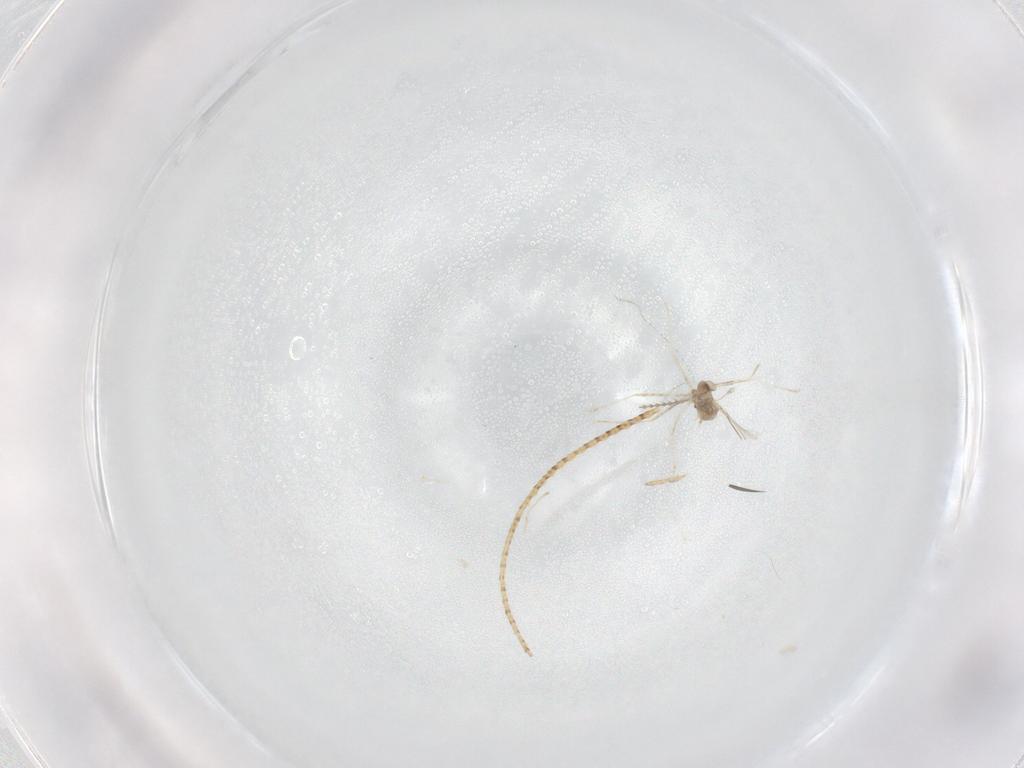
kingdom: Animalia
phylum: Arthropoda
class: Insecta
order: Diptera
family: Cecidomyiidae
